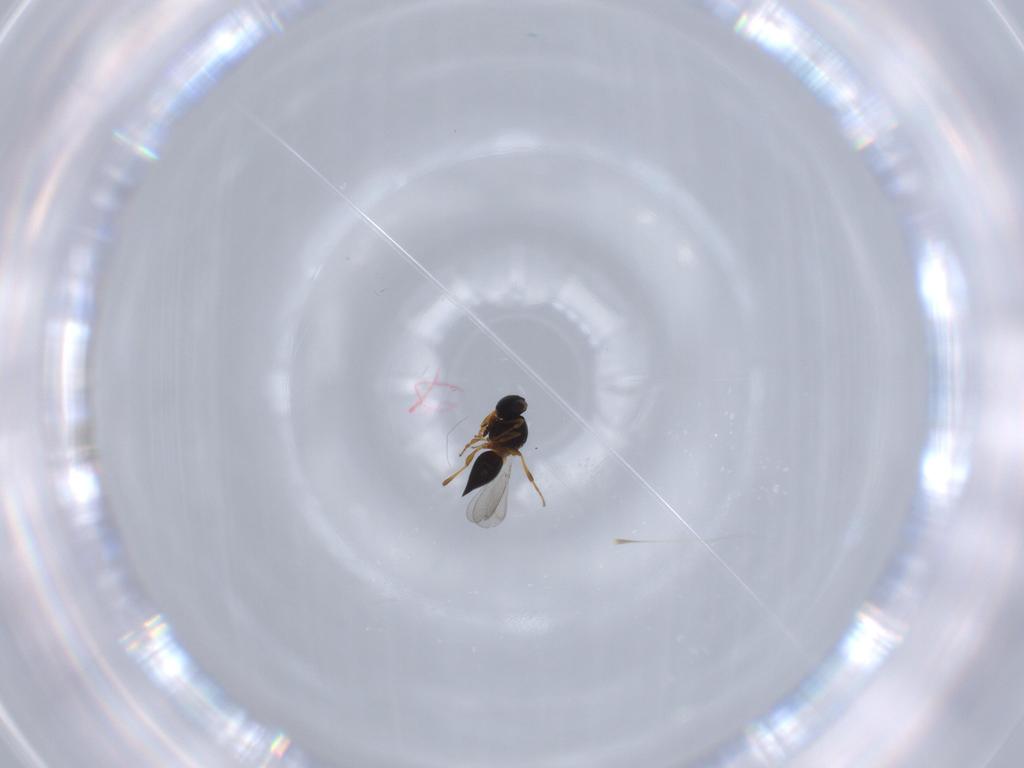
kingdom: Animalia
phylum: Arthropoda
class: Insecta
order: Hymenoptera
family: Platygastridae
